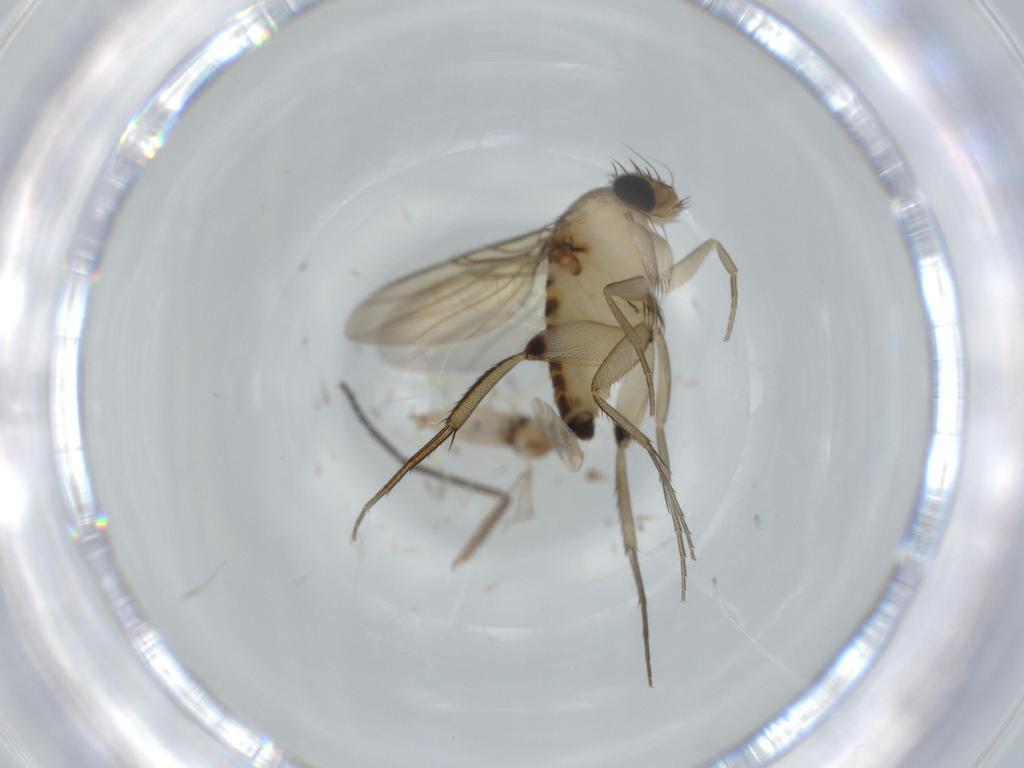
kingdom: Animalia
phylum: Arthropoda
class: Insecta
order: Diptera
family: Phoridae
